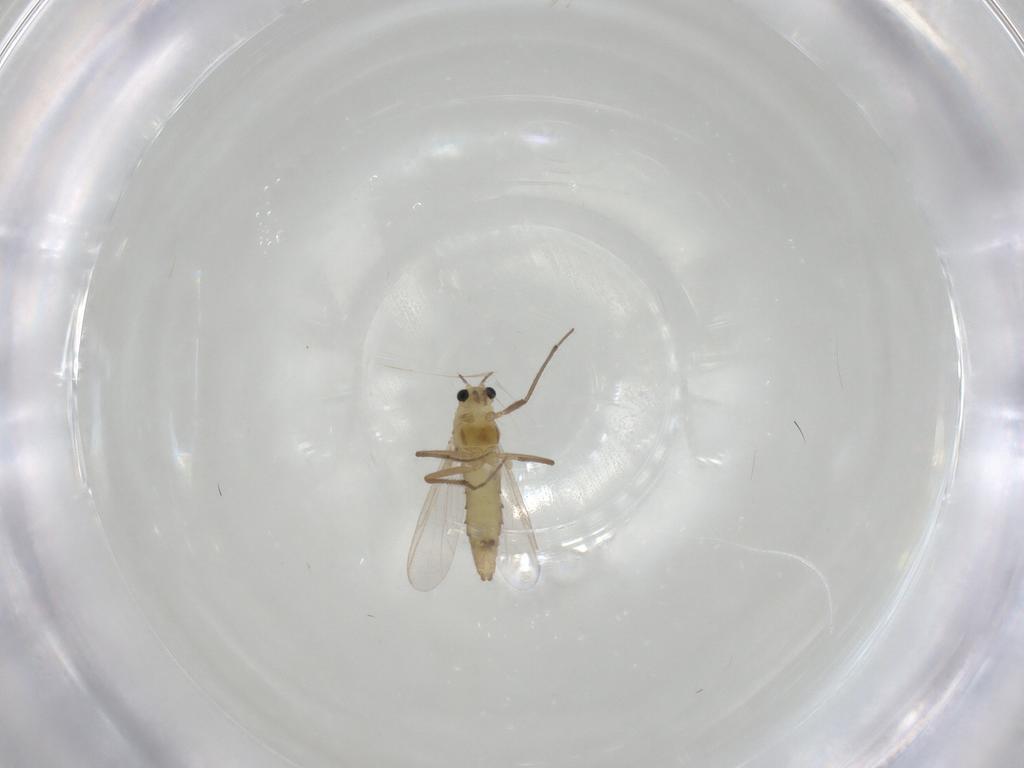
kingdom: Animalia
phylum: Arthropoda
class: Insecta
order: Diptera
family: Chironomidae
